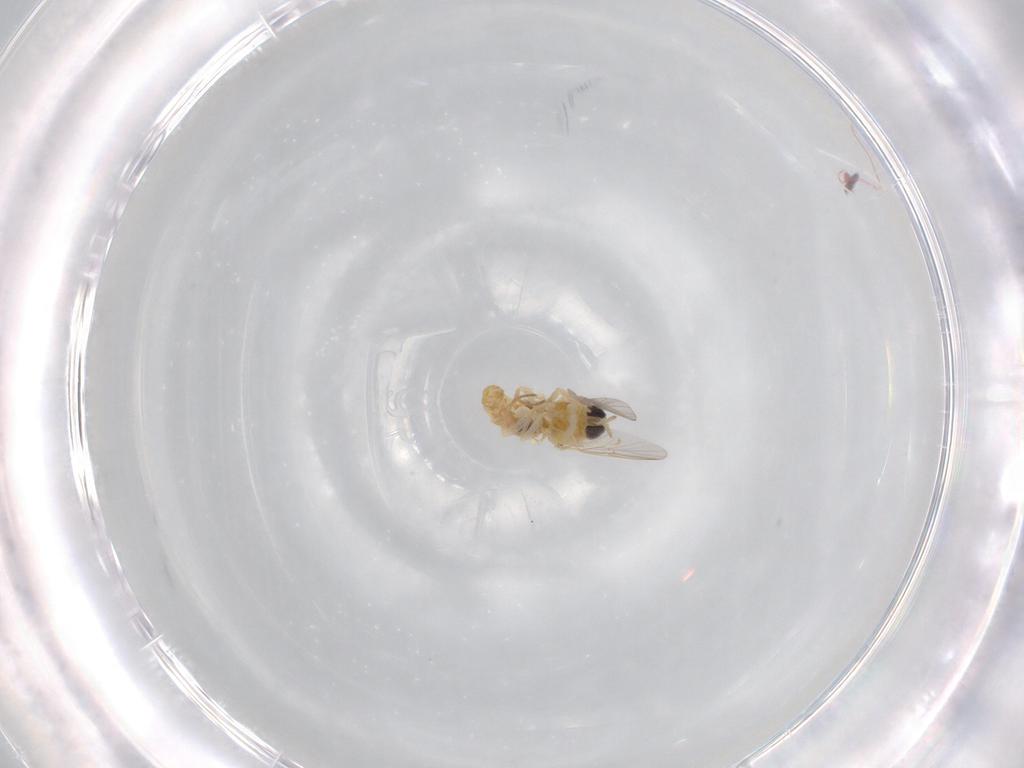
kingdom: Animalia
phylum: Arthropoda
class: Insecta
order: Diptera
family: Mythicomyiidae
